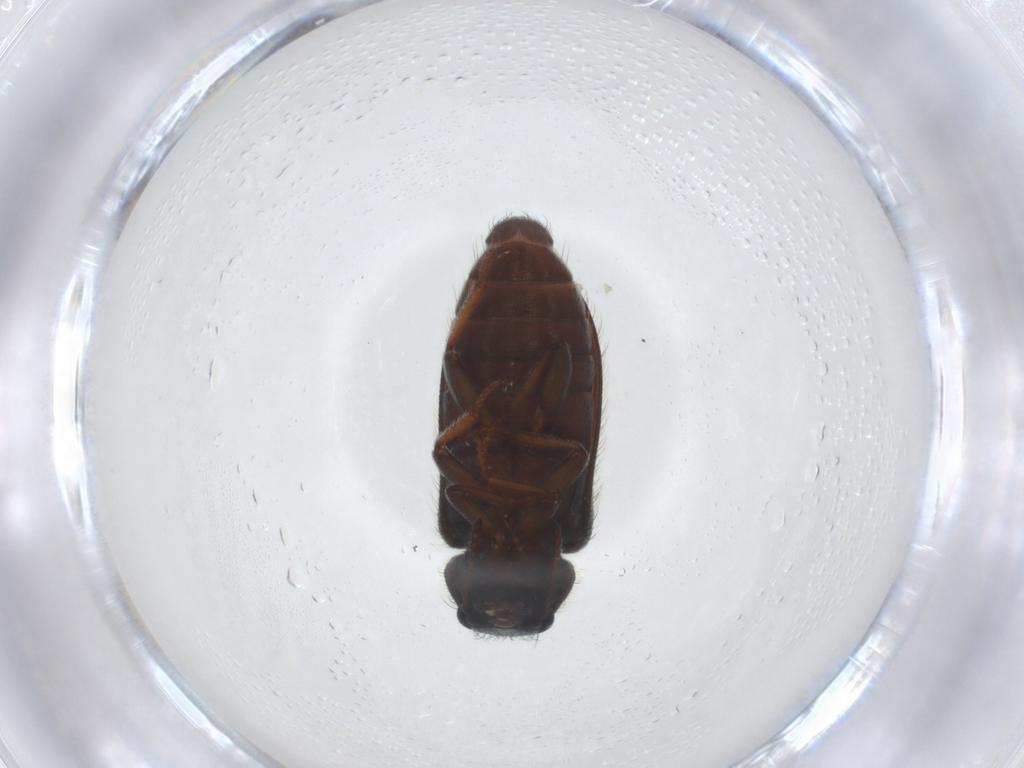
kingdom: Animalia
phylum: Arthropoda
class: Insecta
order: Coleoptera
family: Melyridae
